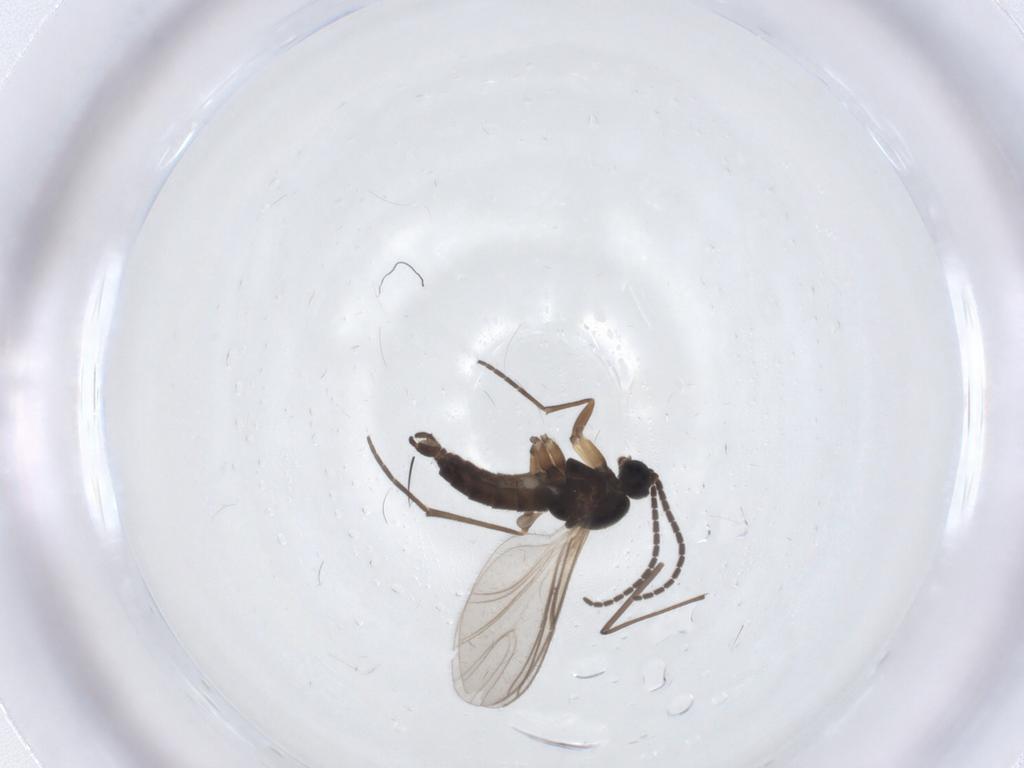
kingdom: Animalia
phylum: Arthropoda
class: Insecta
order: Diptera
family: Sciaridae
